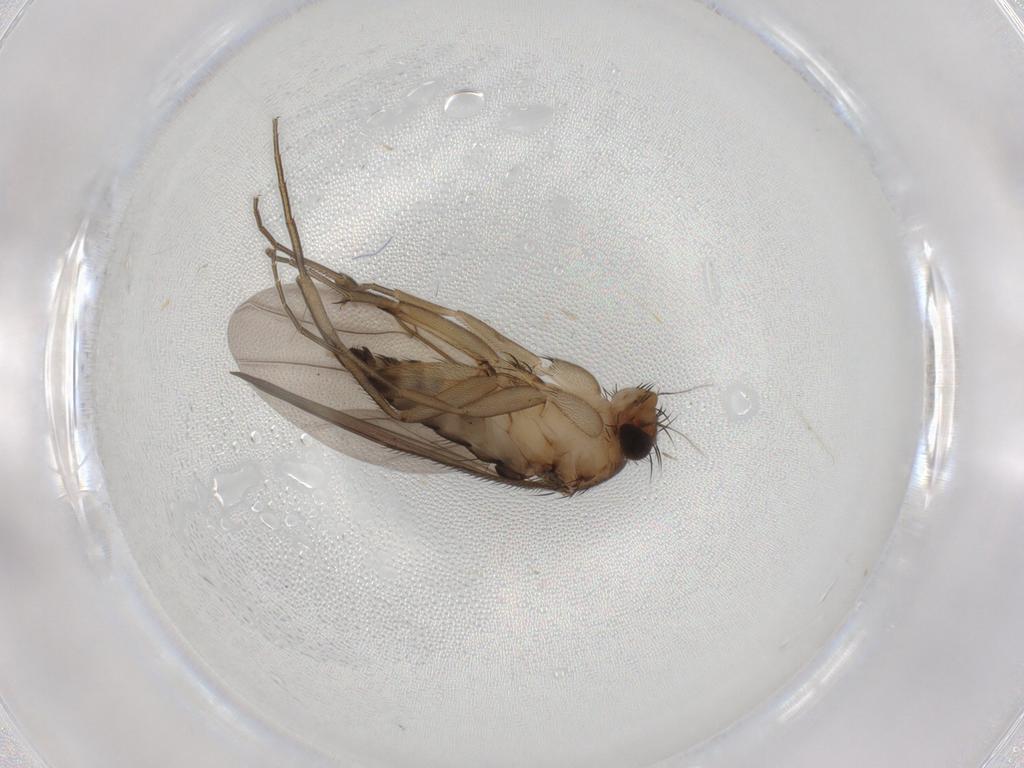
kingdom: Animalia
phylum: Arthropoda
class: Insecta
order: Diptera
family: Phoridae
